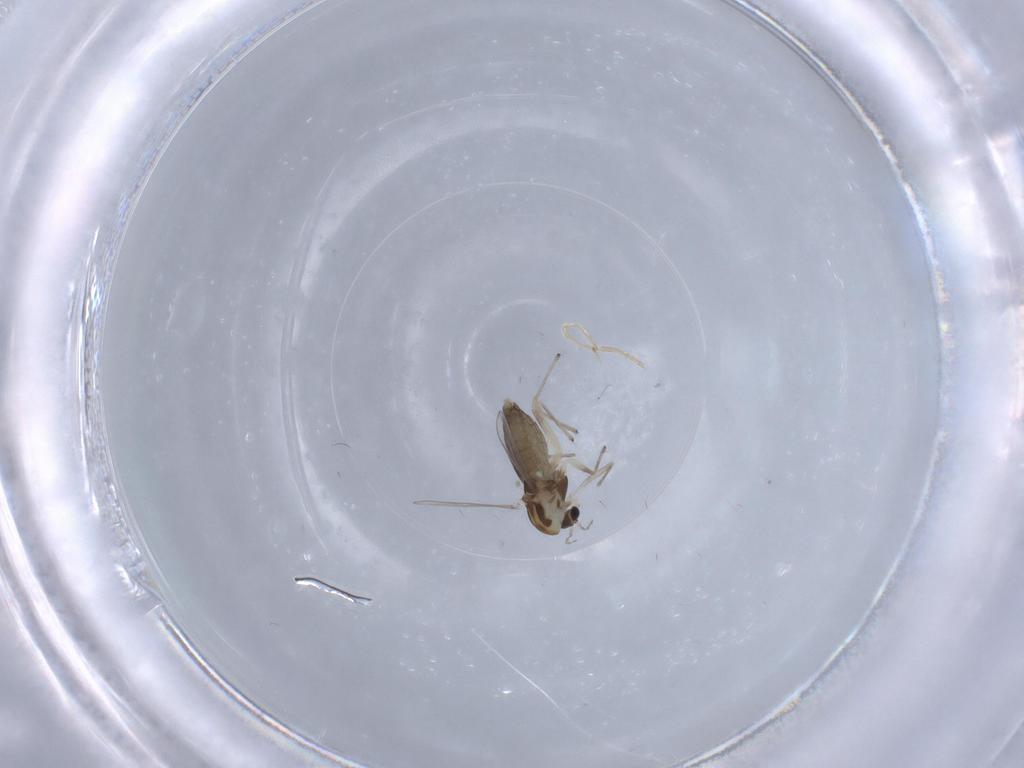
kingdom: Animalia
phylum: Arthropoda
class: Insecta
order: Diptera
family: Chironomidae
